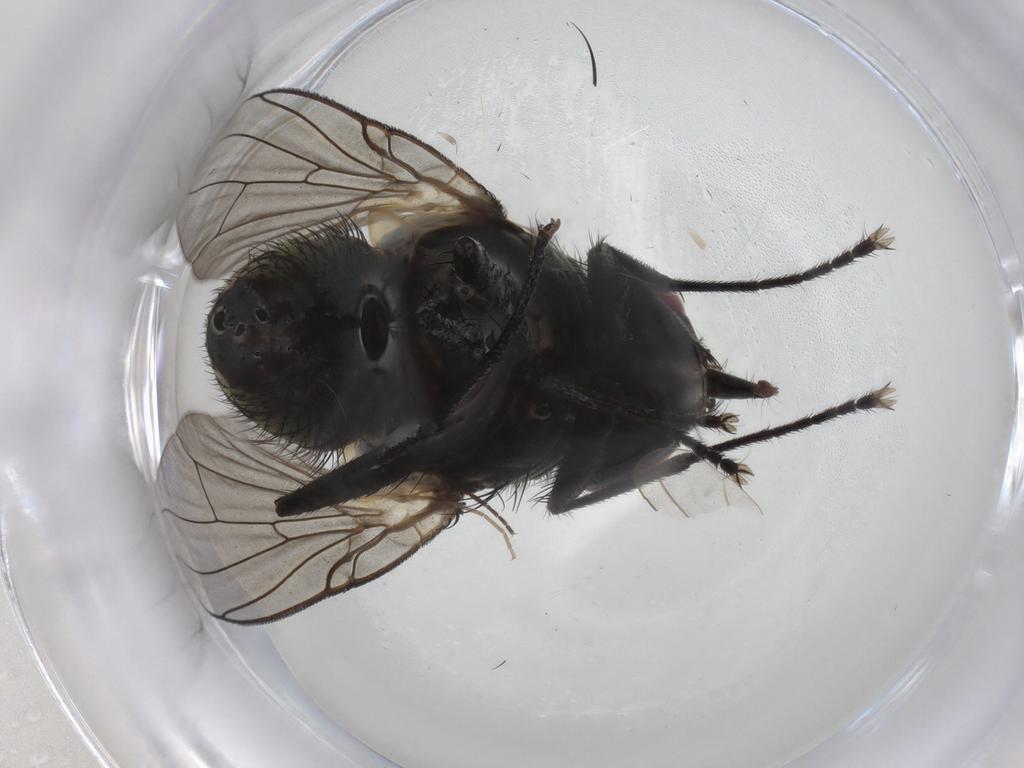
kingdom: Animalia
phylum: Arthropoda
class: Insecta
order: Diptera
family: Muscidae
